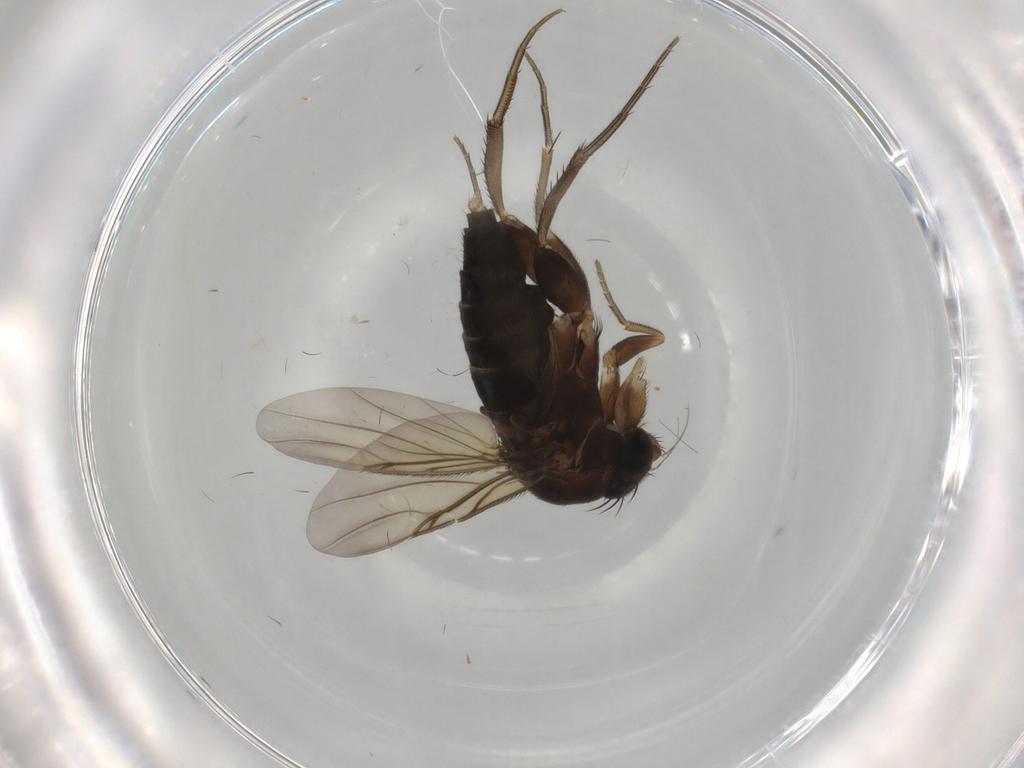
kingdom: Animalia
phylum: Arthropoda
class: Insecta
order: Diptera
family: Phoridae
